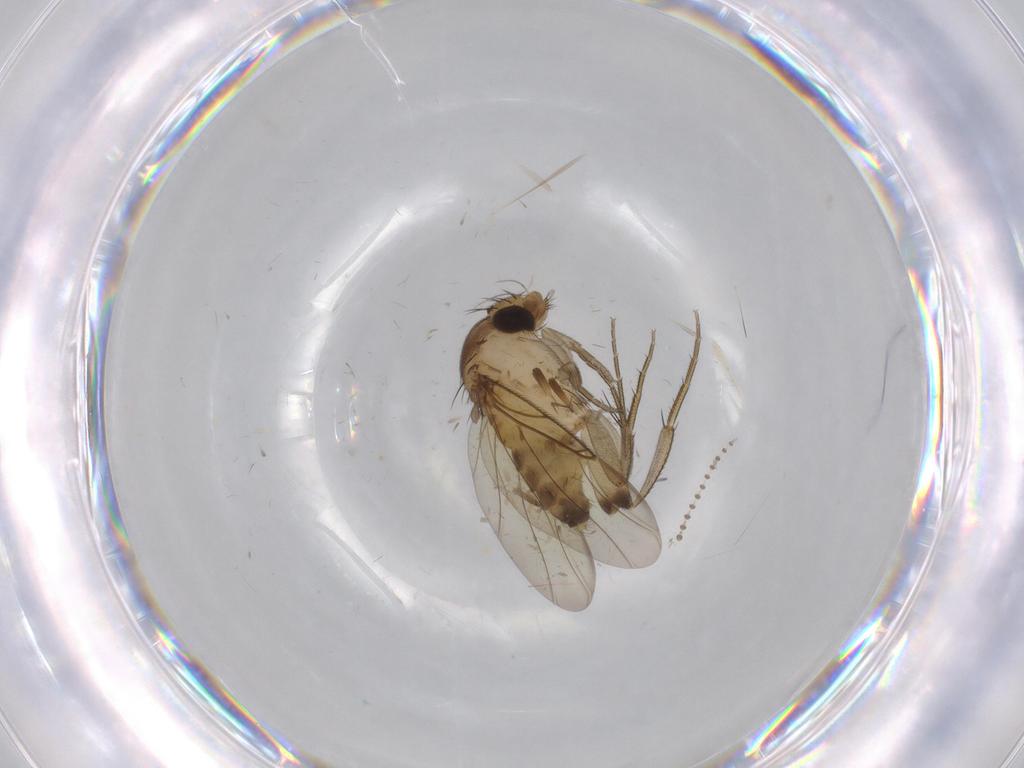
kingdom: Animalia
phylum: Arthropoda
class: Insecta
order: Diptera
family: Phoridae
